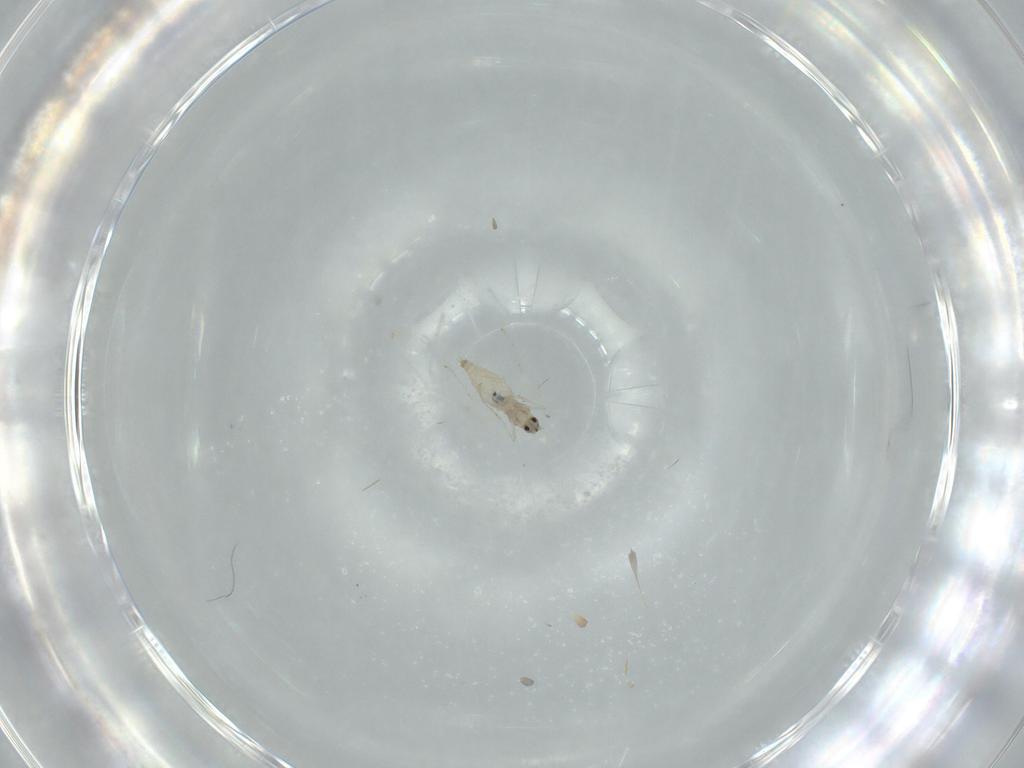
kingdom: Animalia
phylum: Arthropoda
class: Insecta
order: Diptera
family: Cecidomyiidae
